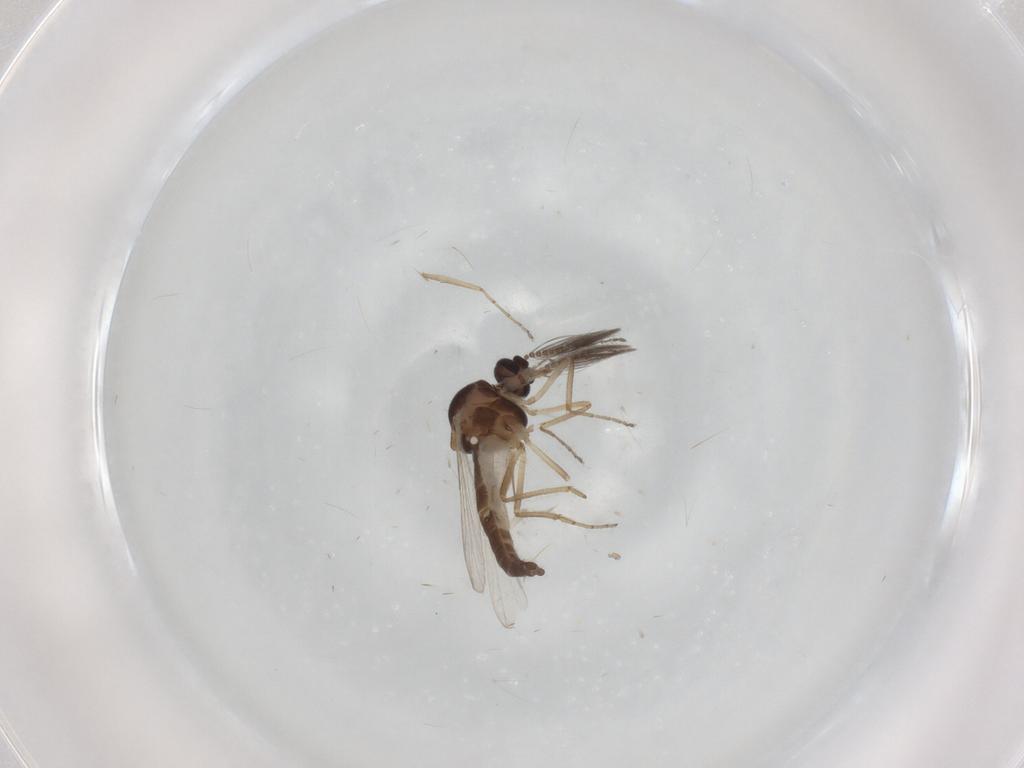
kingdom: Animalia
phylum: Arthropoda
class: Insecta
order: Diptera
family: Ceratopogonidae
